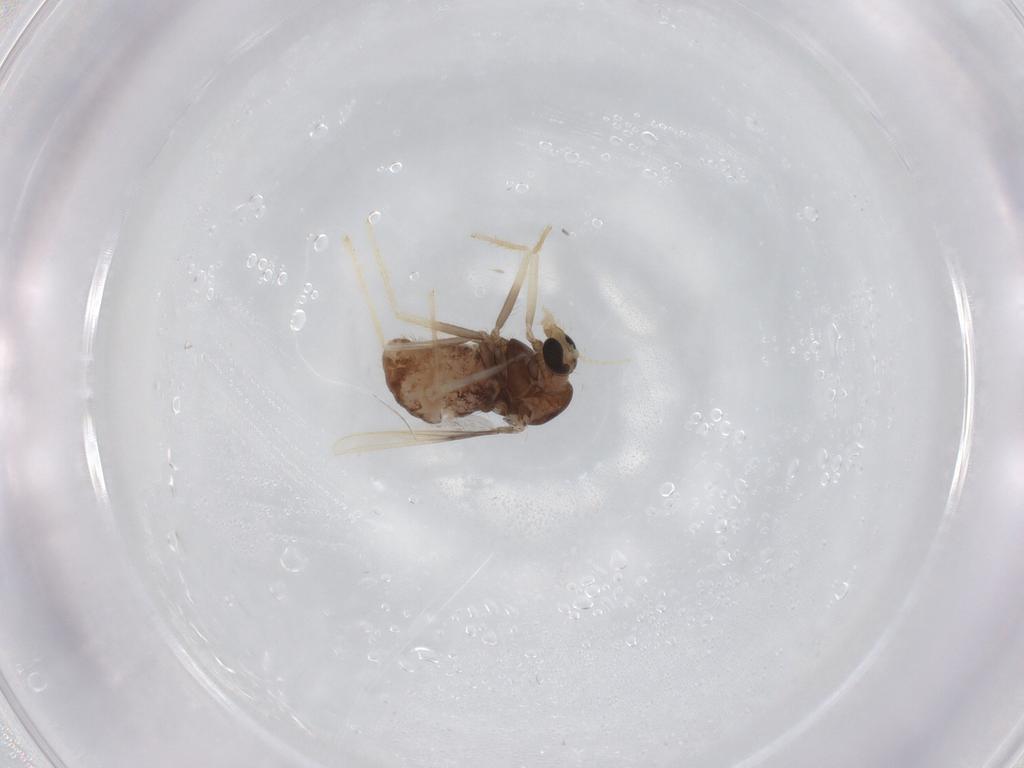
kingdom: Animalia
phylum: Arthropoda
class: Insecta
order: Diptera
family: Chironomidae
